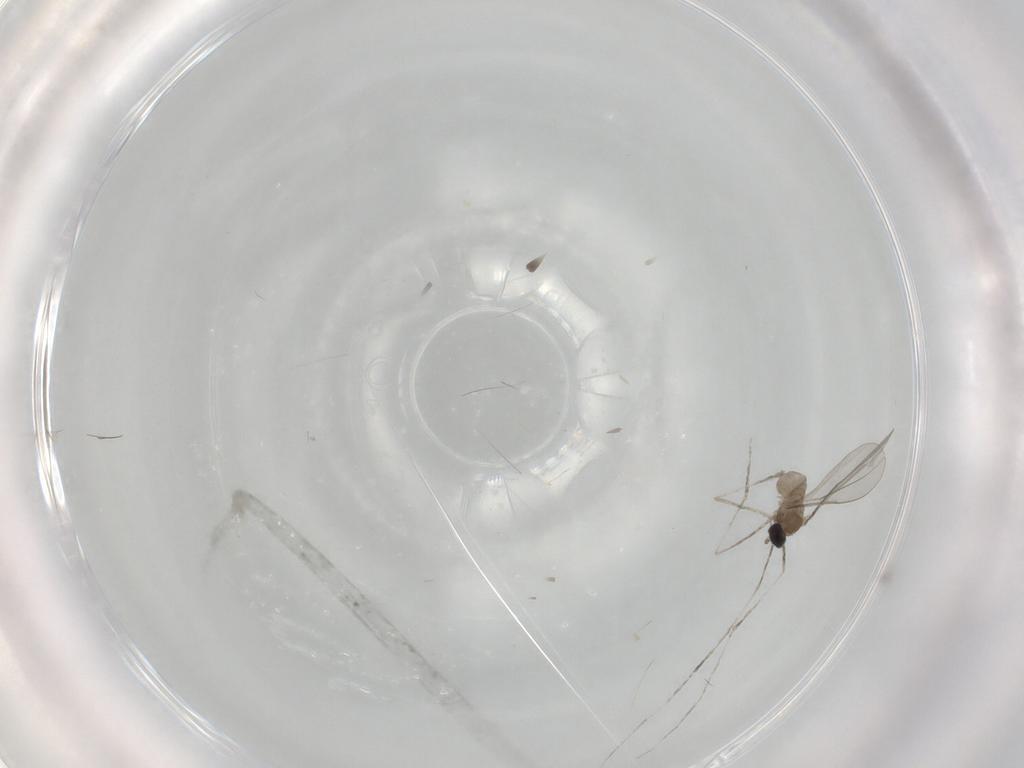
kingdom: Animalia
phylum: Arthropoda
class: Insecta
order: Diptera
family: Cecidomyiidae
